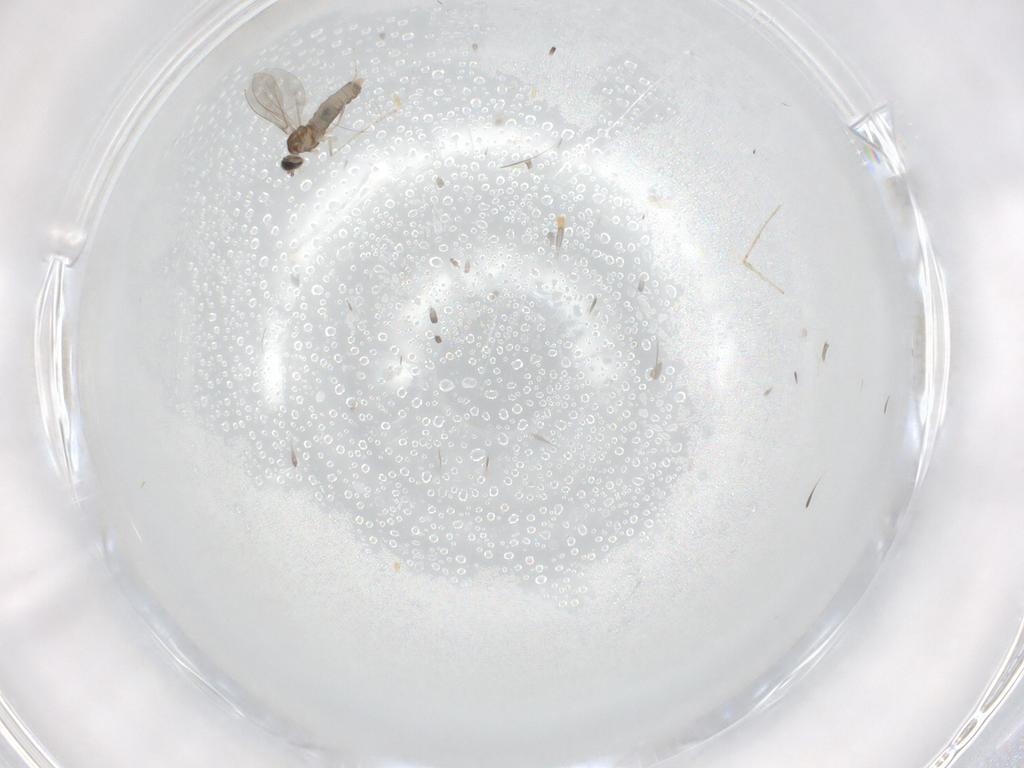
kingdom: Animalia
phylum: Arthropoda
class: Insecta
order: Diptera
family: Cecidomyiidae
